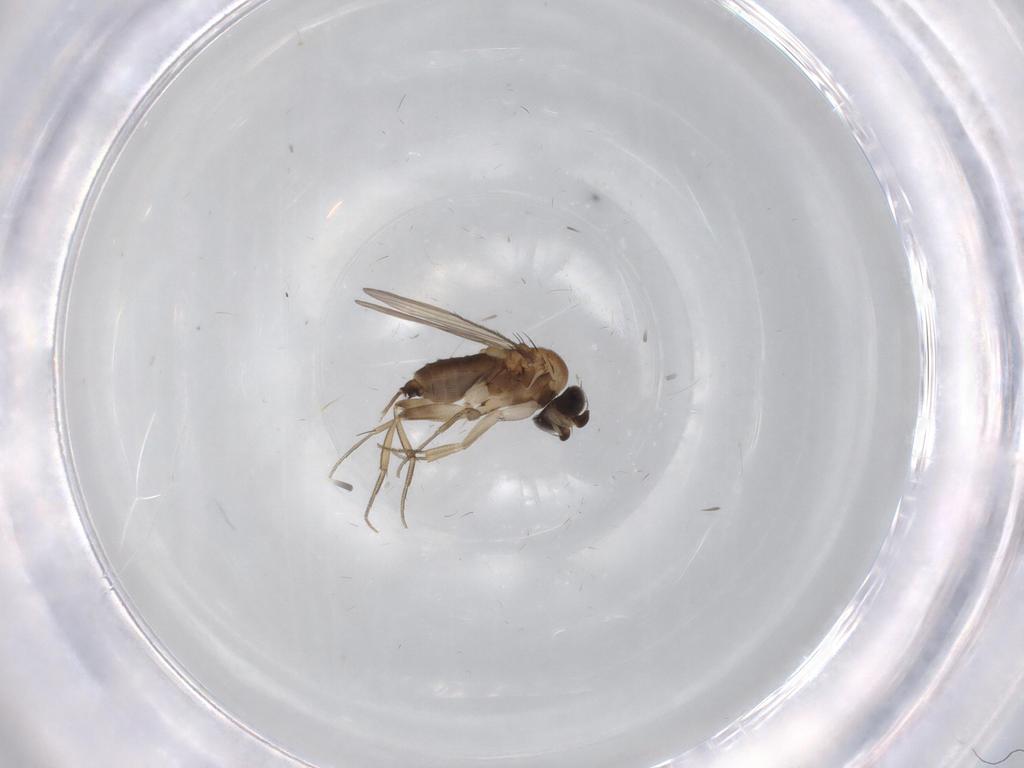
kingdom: Animalia
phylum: Arthropoda
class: Insecta
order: Diptera
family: Phoridae
